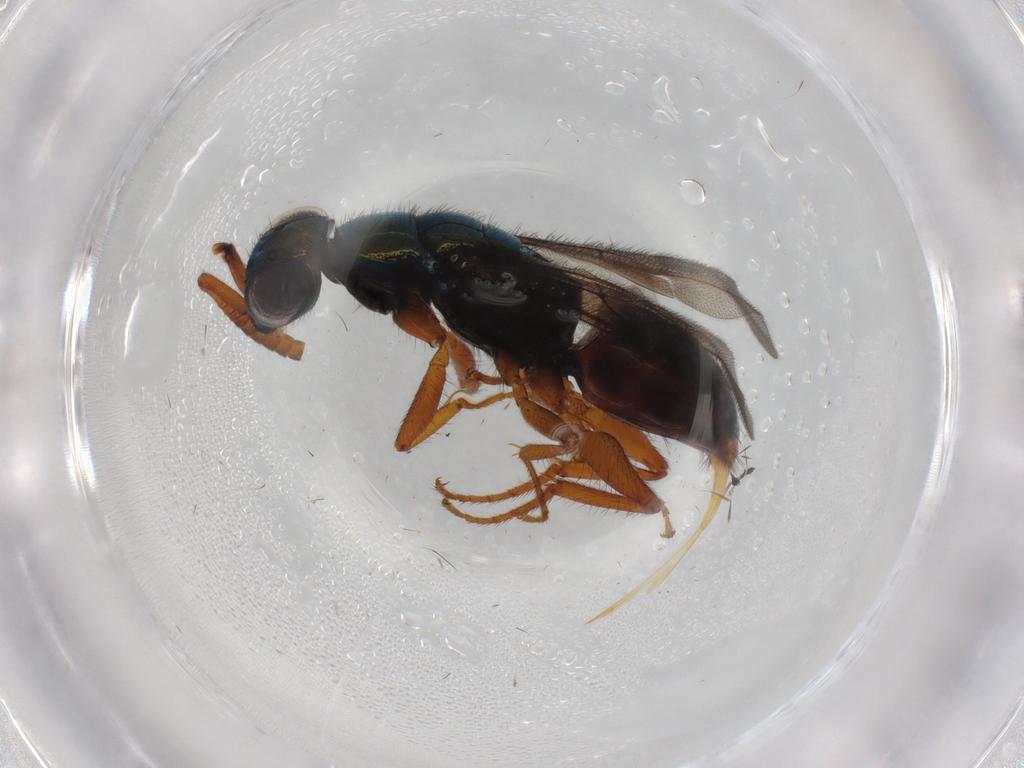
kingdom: Animalia
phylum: Arthropoda
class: Insecta
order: Hymenoptera
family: Chrysididae
